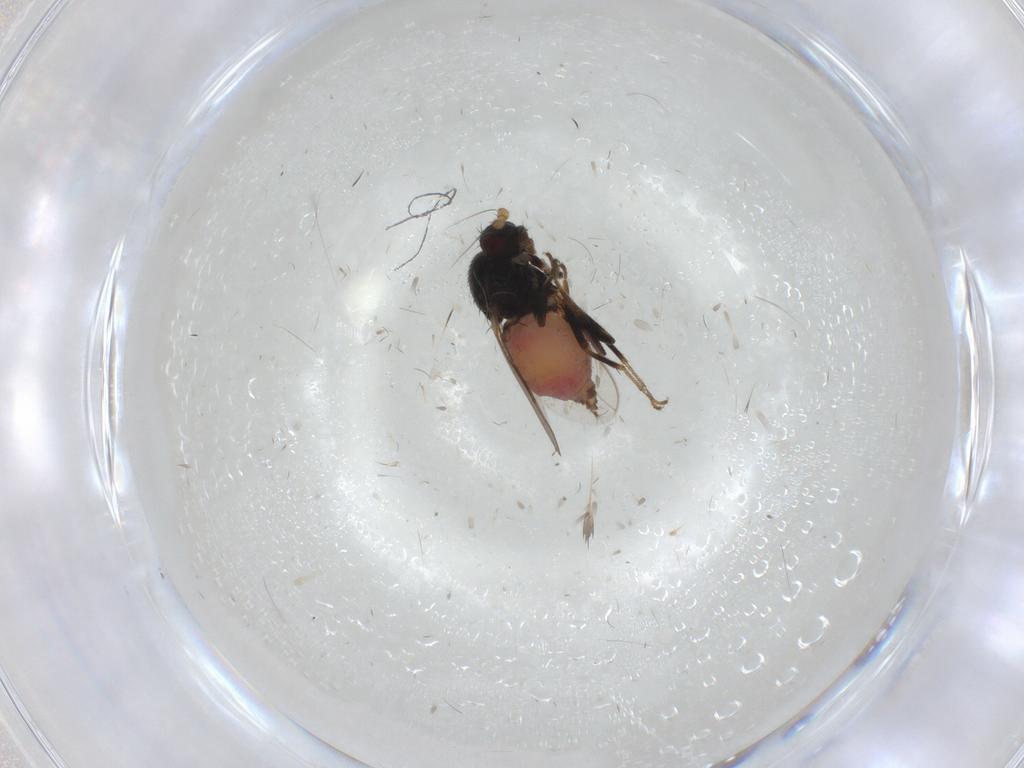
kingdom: Animalia
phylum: Arthropoda
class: Insecta
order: Diptera
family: Sphaeroceridae
